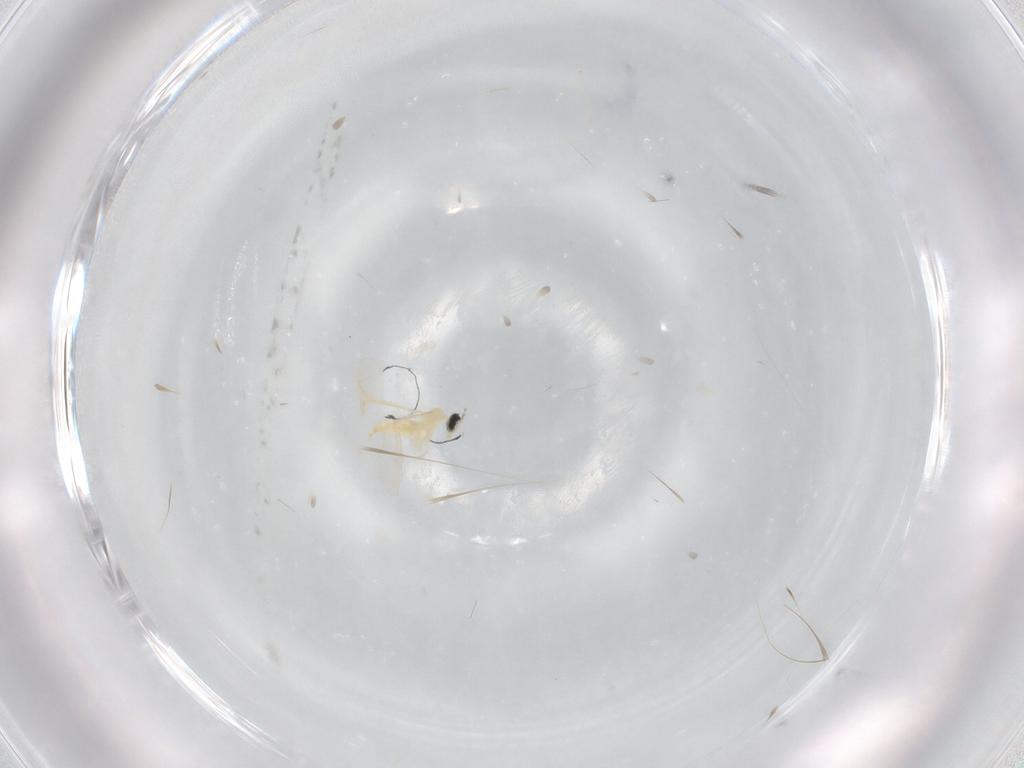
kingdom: Animalia
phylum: Arthropoda
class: Insecta
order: Diptera
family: Cecidomyiidae
